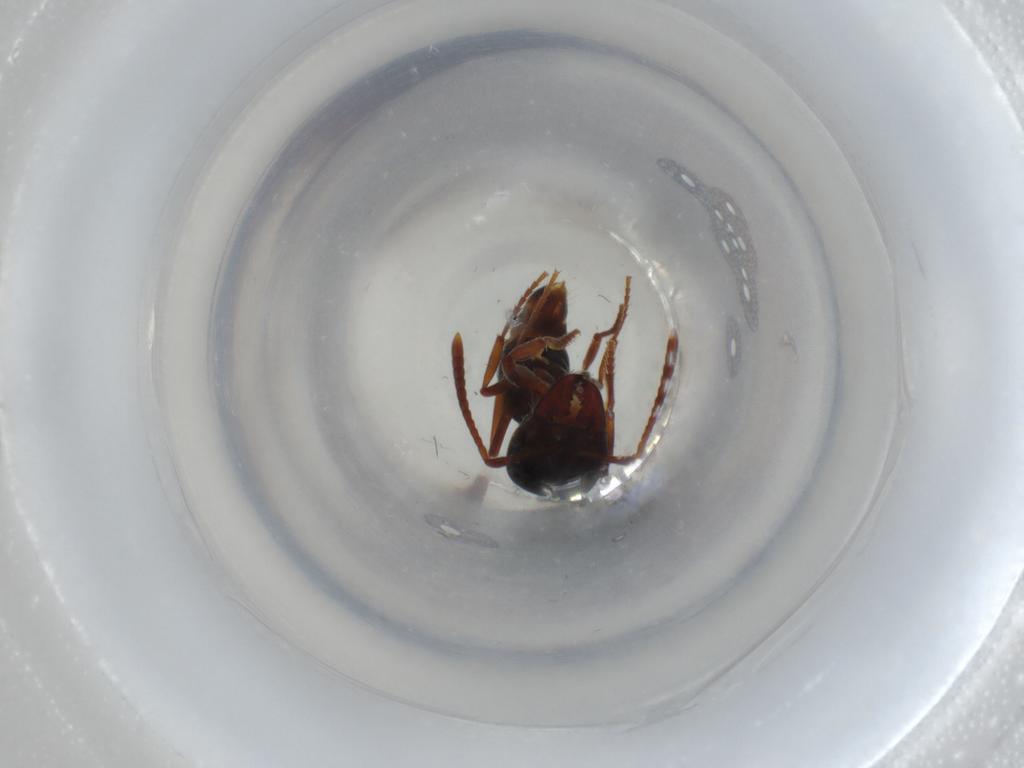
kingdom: Animalia
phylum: Arthropoda
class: Insecta
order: Hymenoptera
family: Formicidae
